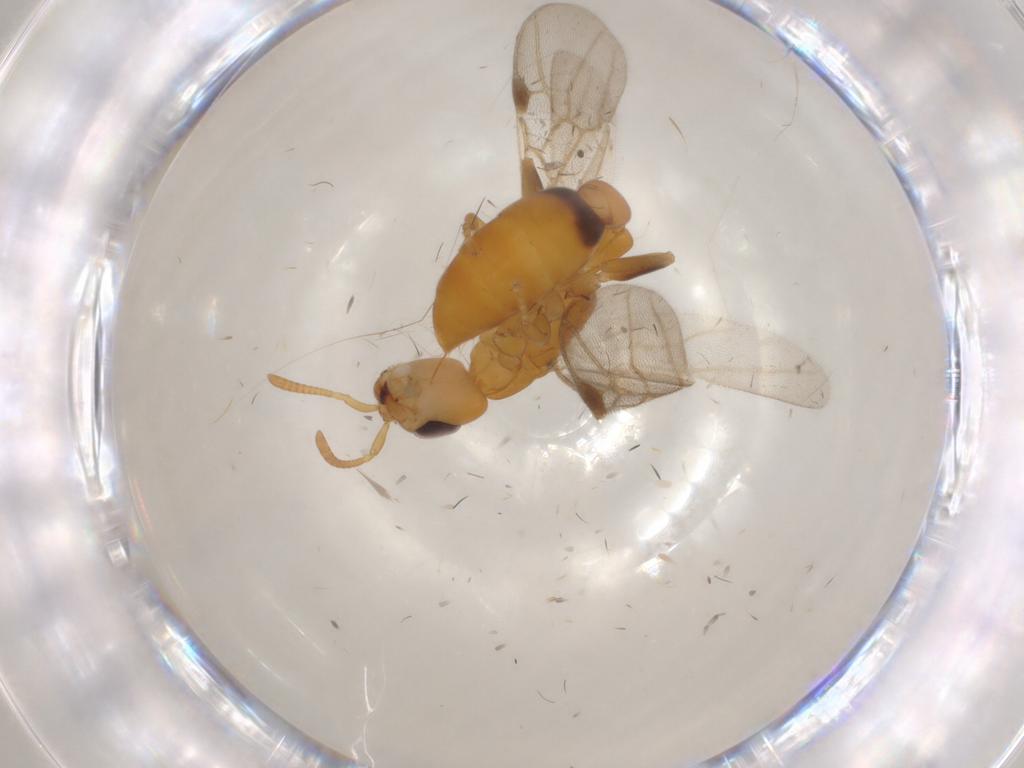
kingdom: Animalia
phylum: Arthropoda
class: Insecta
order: Hymenoptera
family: Formicidae
